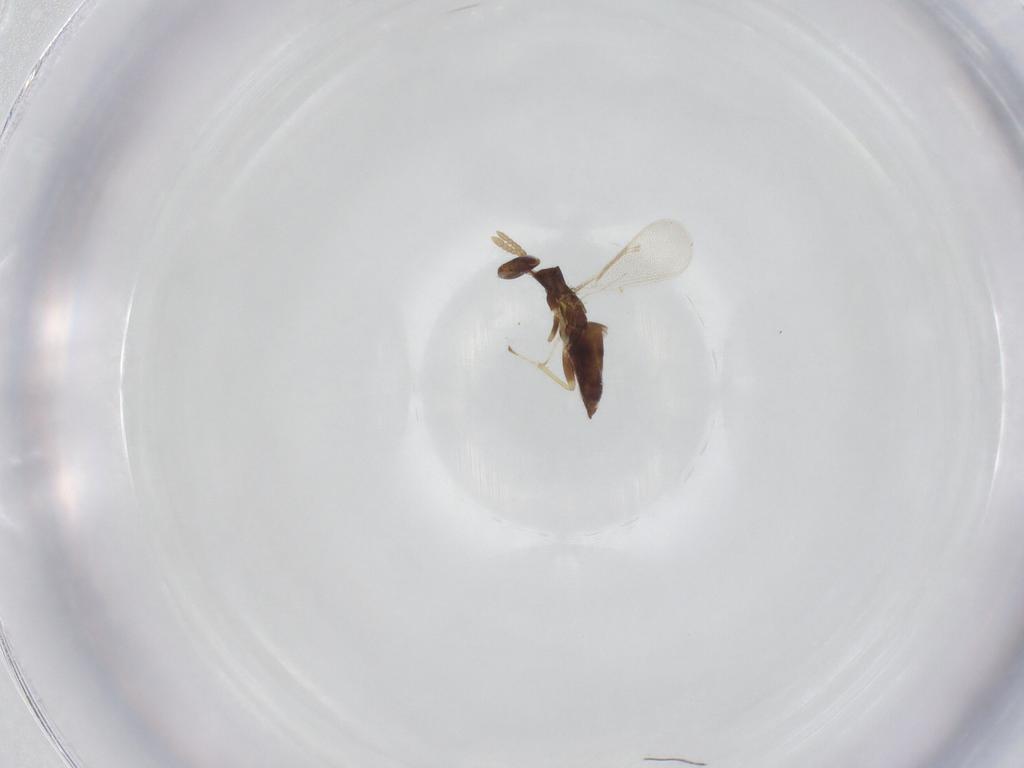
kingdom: Animalia
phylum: Arthropoda
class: Insecta
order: Hymenoptera
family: Eulophidae
